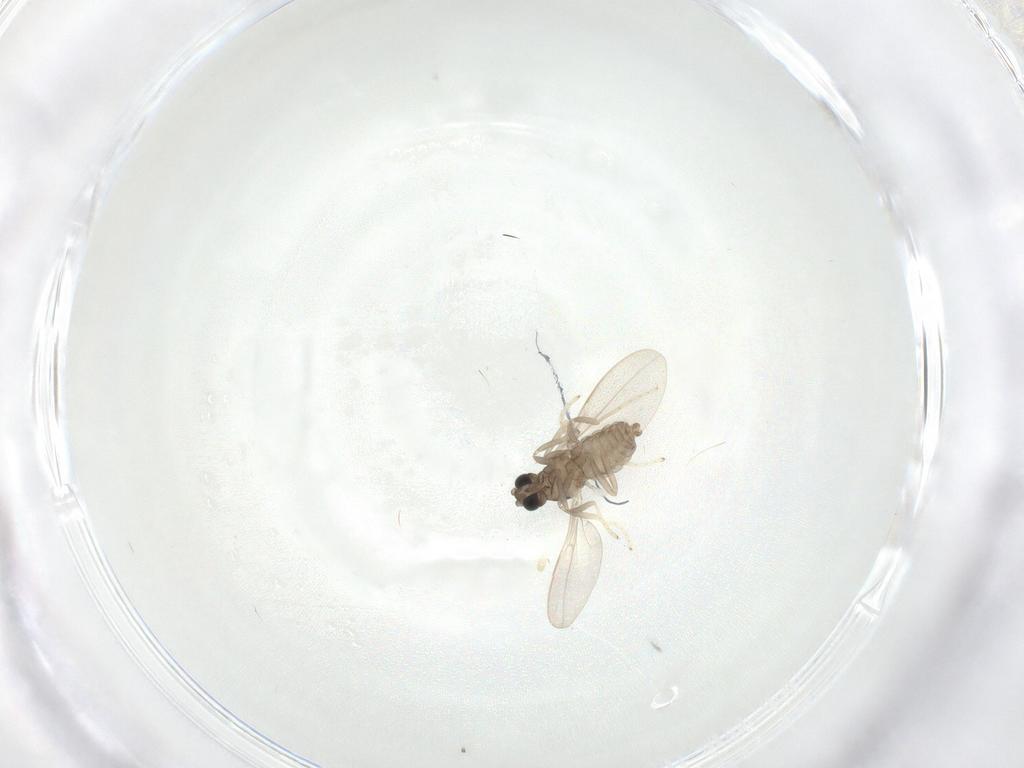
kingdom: Animalia
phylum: Arthropoda
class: Insecta
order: Diptera
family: Cecidomyiidae
